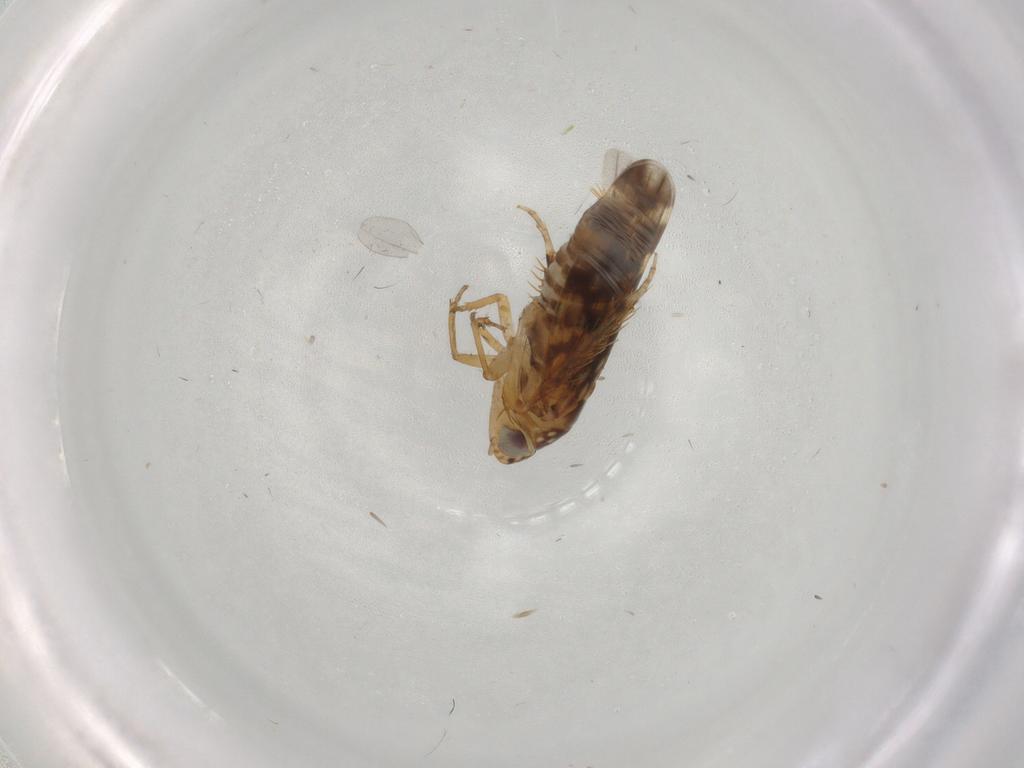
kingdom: Animalia
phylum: Arthropoda
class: Insecta
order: Hemiptera
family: Cicadellidae
